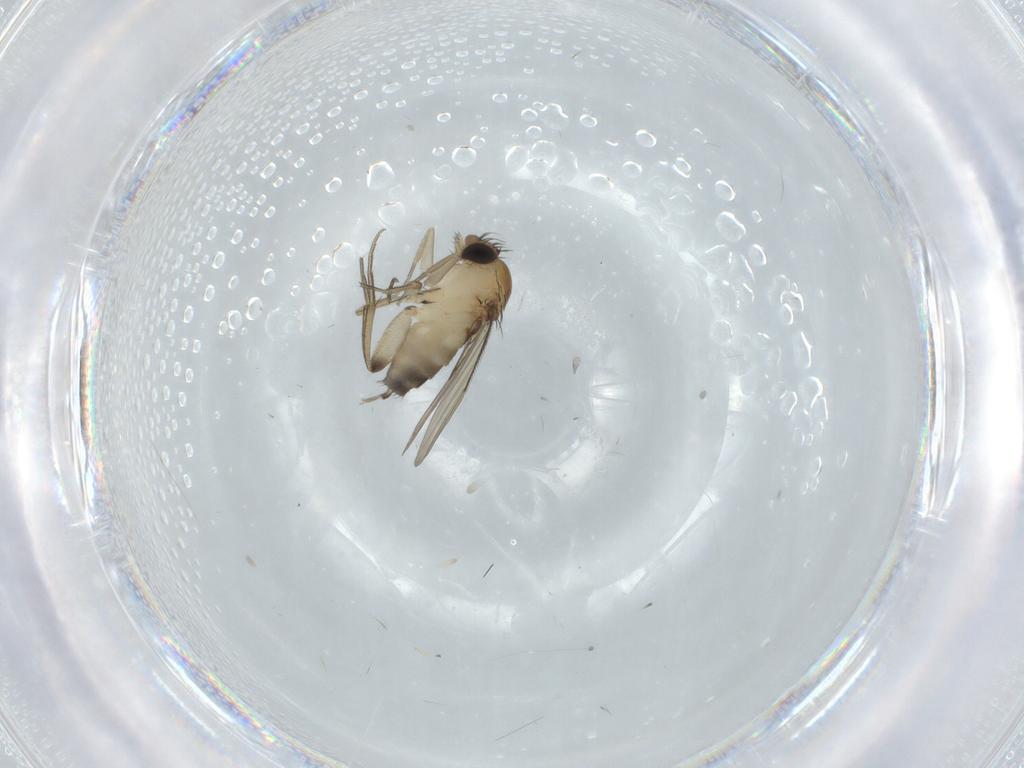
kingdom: Animalia
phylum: Arthropoda
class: Insecta
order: Diptera
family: Phoridae
